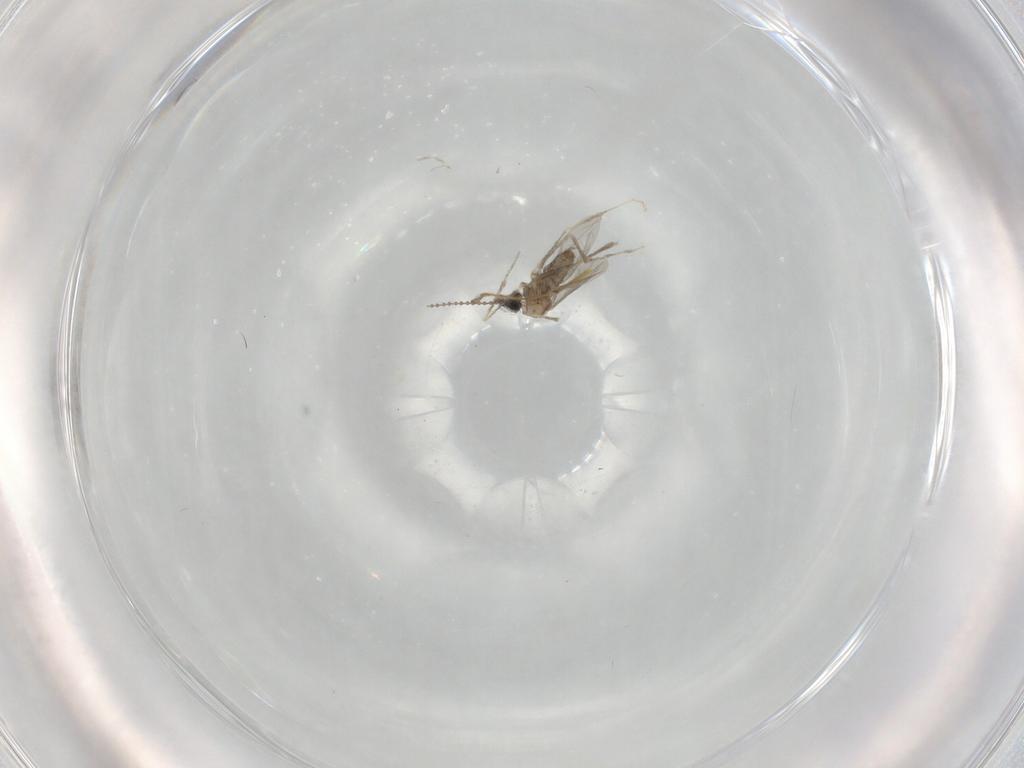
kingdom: Animalia
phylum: Arthropoda
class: Insecta
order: Diptera
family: Cecidomyiidae
